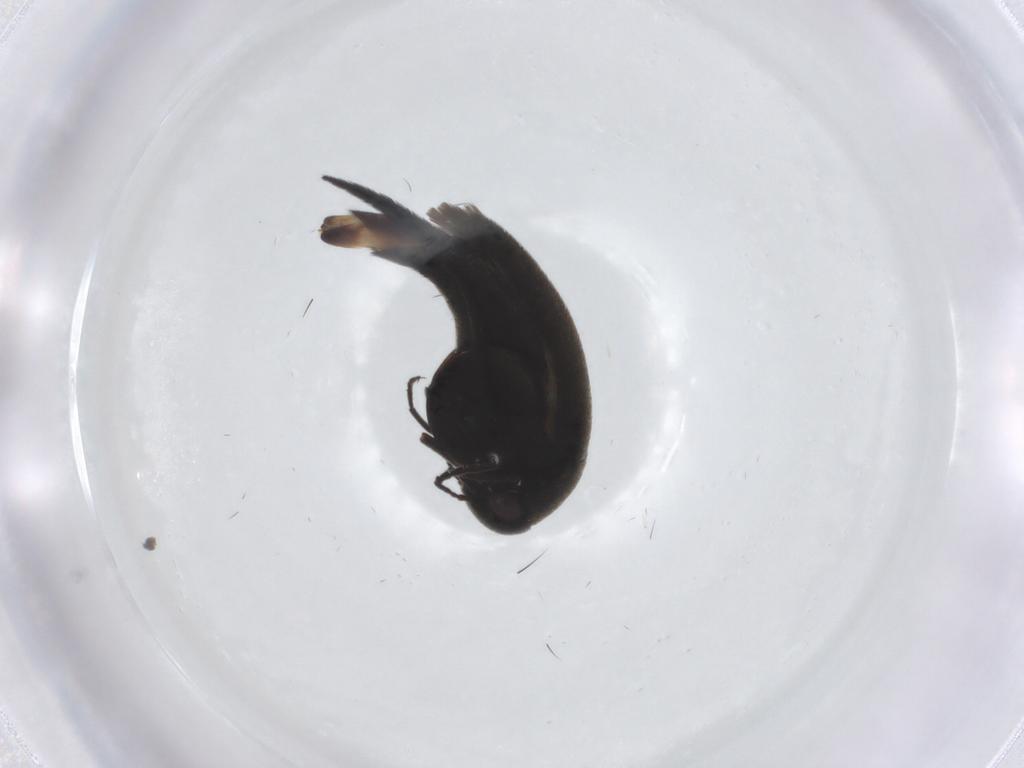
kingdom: Animalia
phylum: Arthropoda
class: Insecta
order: Coleoptera
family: Mordellidae
